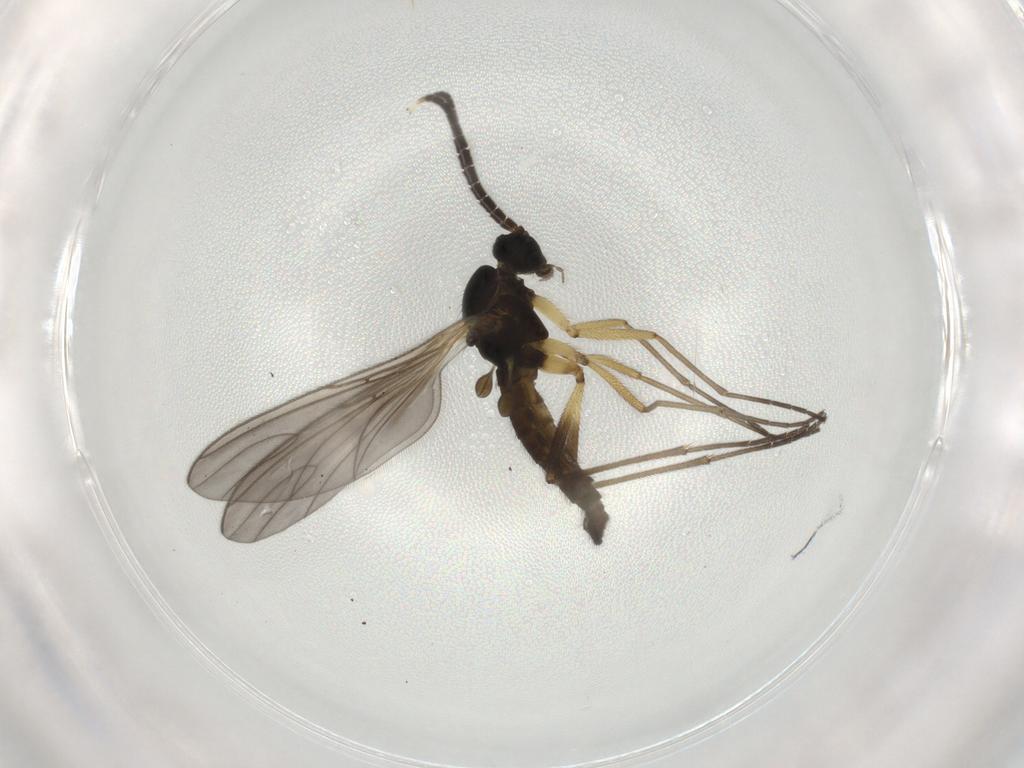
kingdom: Animalia
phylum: Arthropoda
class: Insecta
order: Diptera
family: Sciaridae
